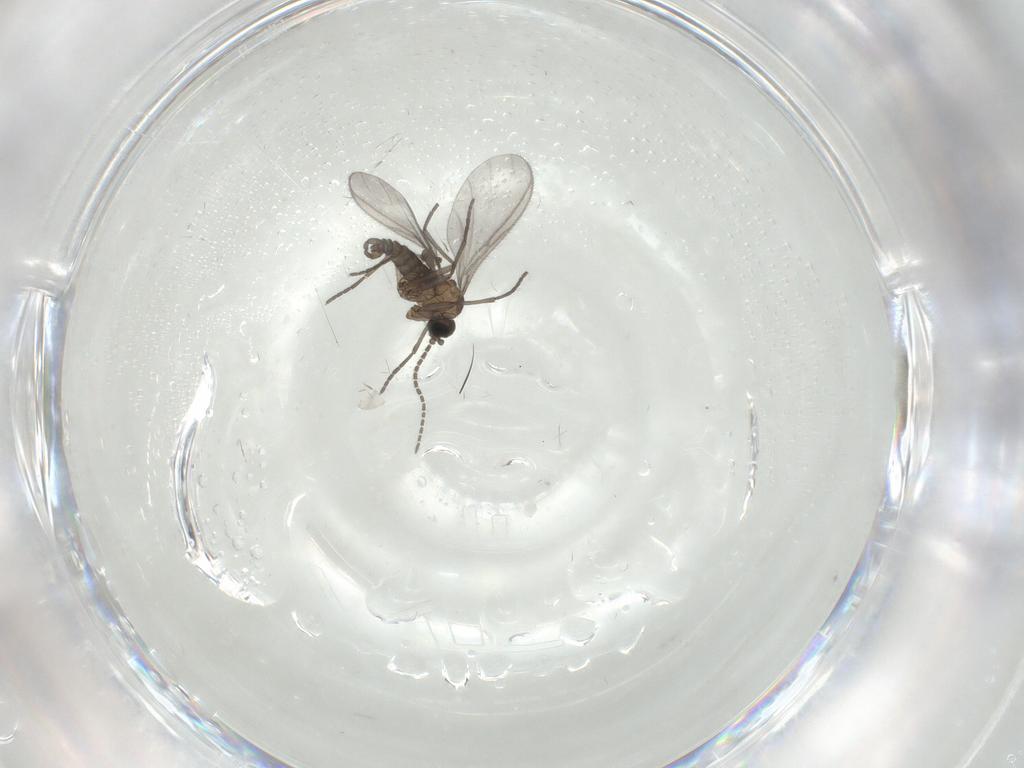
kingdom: Animalia
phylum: Arthropoda
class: Insecta
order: Diptera
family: Sciaridae
